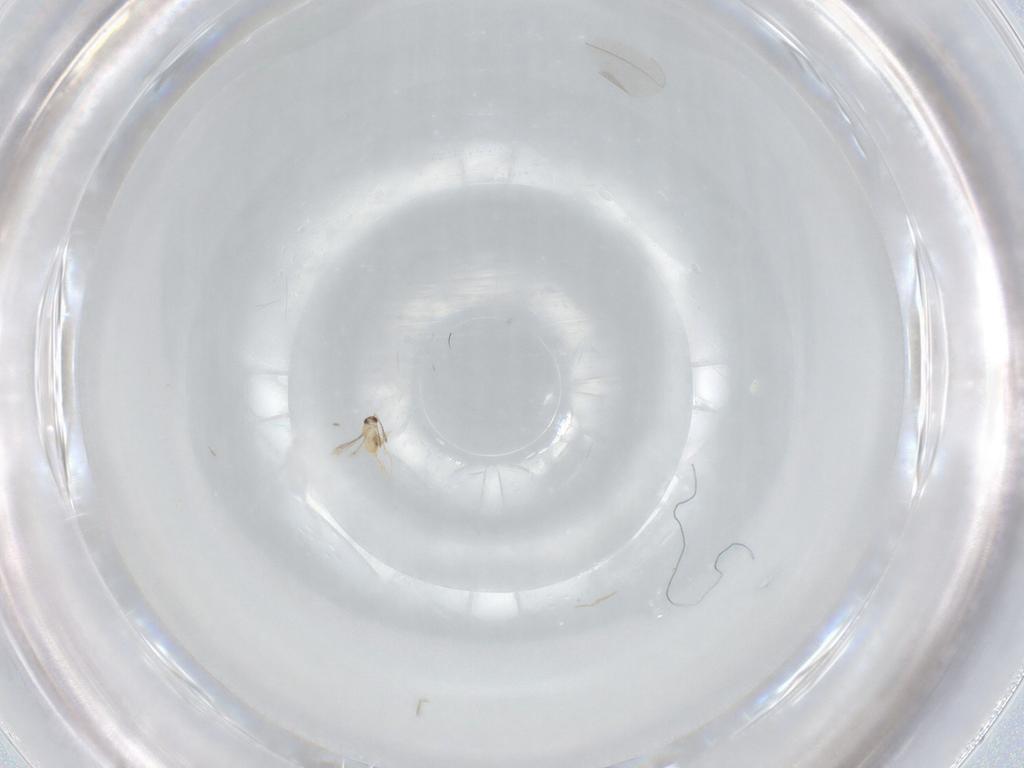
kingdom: Animalia
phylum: Arthropoda
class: Insecta
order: Hymenoptera
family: Mymaridae
